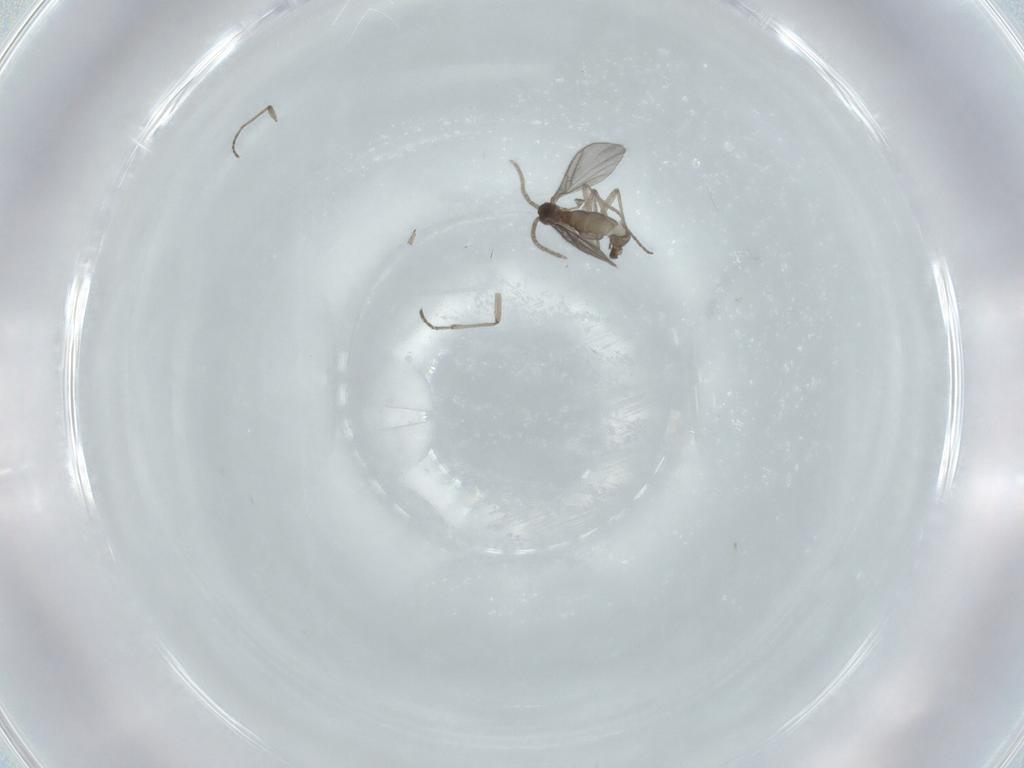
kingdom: Animalia
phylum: Arthropoda
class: Insecta
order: Diptera
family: Sciaridae
